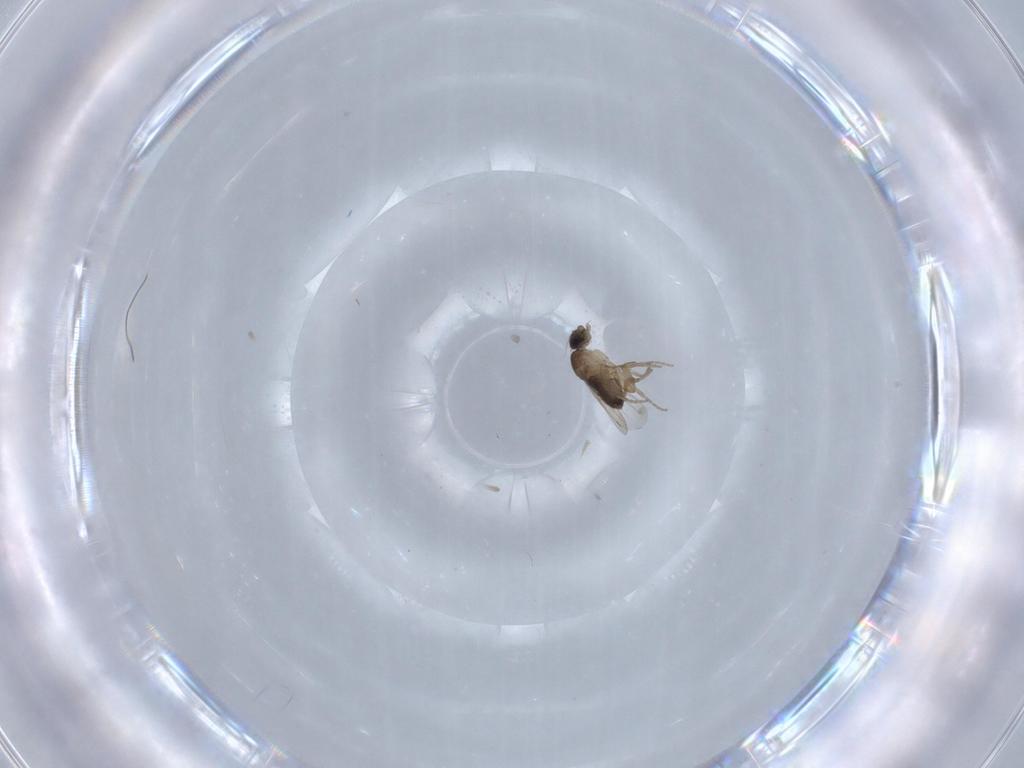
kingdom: Animalia
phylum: Arthropoda
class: Insecta
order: Diptera
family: Phoridae
